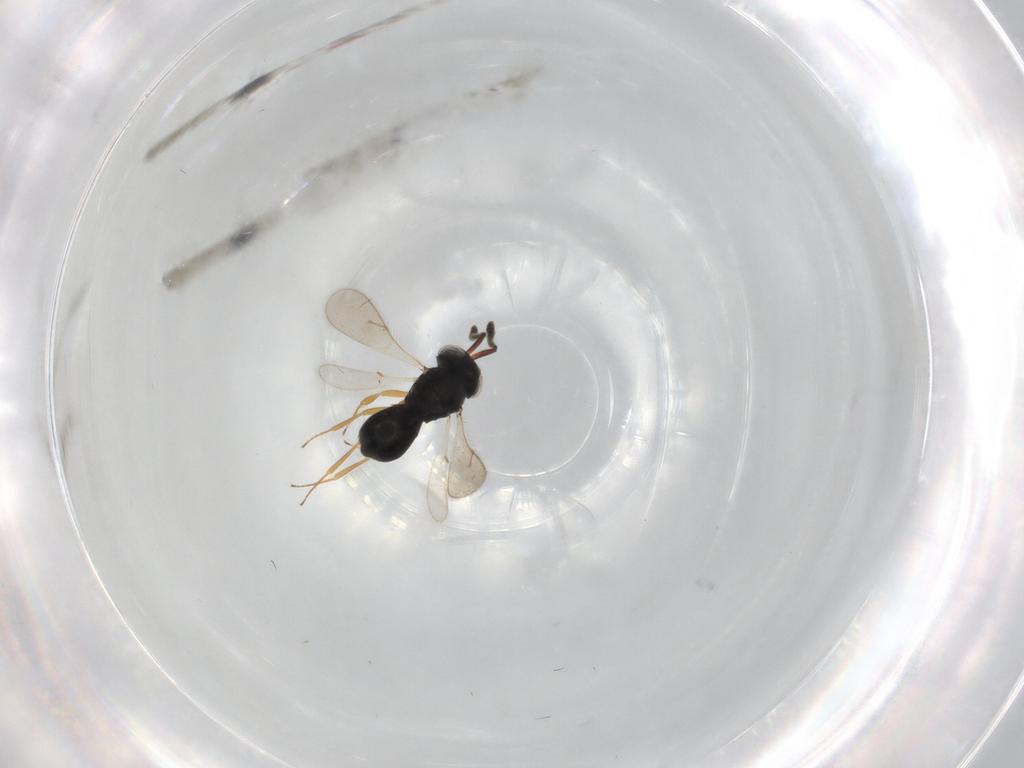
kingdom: Animalia
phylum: Arthropoda
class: Insecta
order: Hymenoptera
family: Scelionidae
